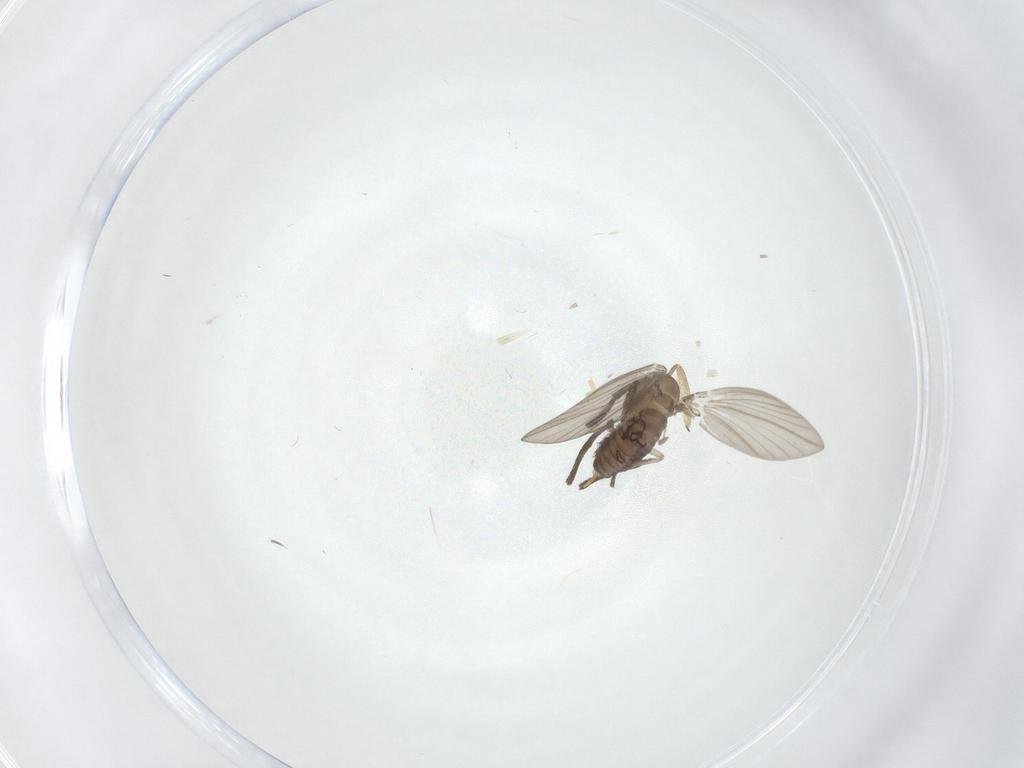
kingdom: Animalia
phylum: Arthropoda
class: Insecta
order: Diptera
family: Psychodidae
